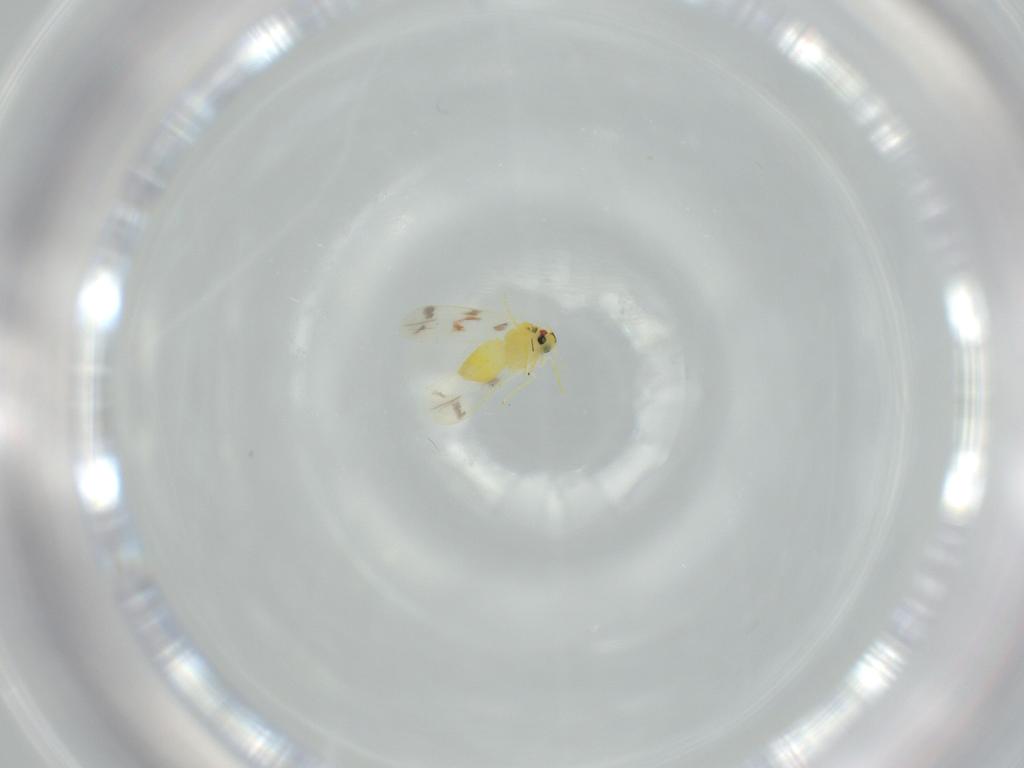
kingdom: Animalia
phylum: Arthropoda
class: Insecta
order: Hemiptera
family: Aleyrodidae
